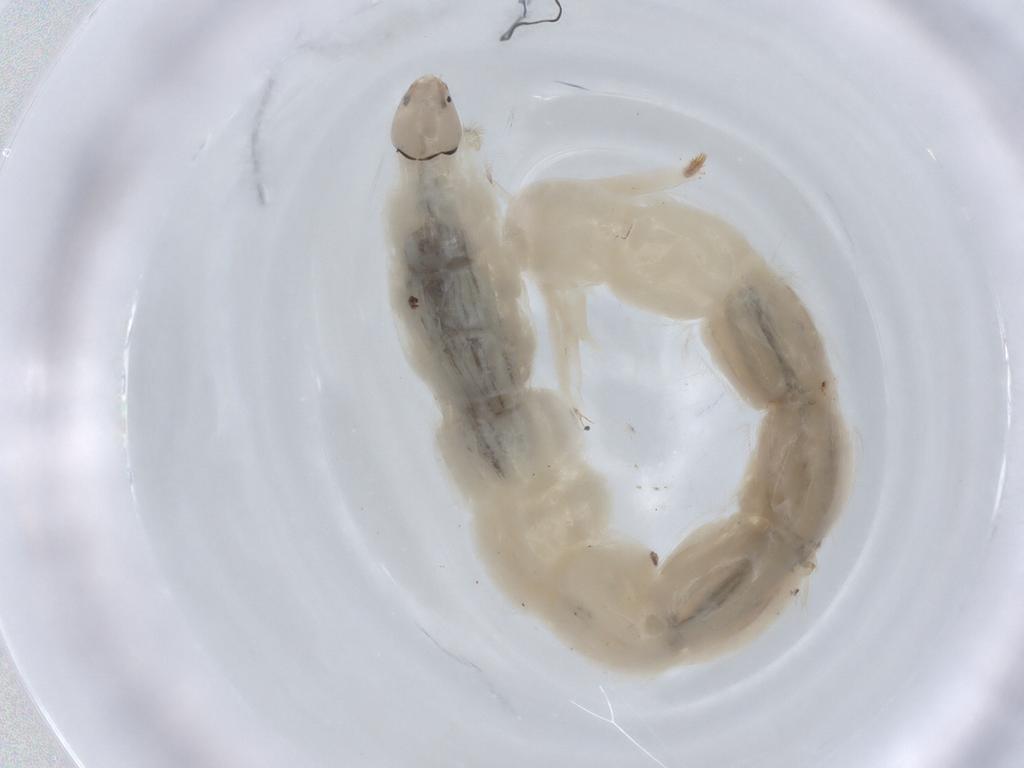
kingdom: Animalia
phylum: Arthropoda
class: Insecta
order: Diptera
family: Chironomidae
